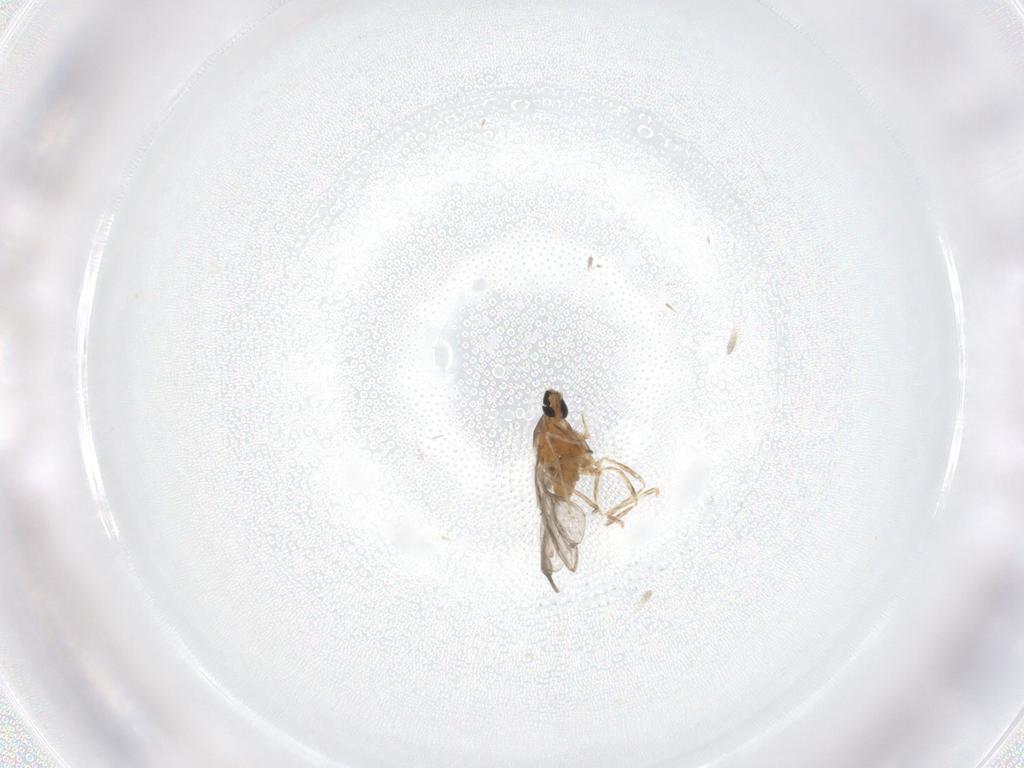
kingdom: Animalia
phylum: Arthropoda
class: Insecta
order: Diptera
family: Cecidomyiidae
